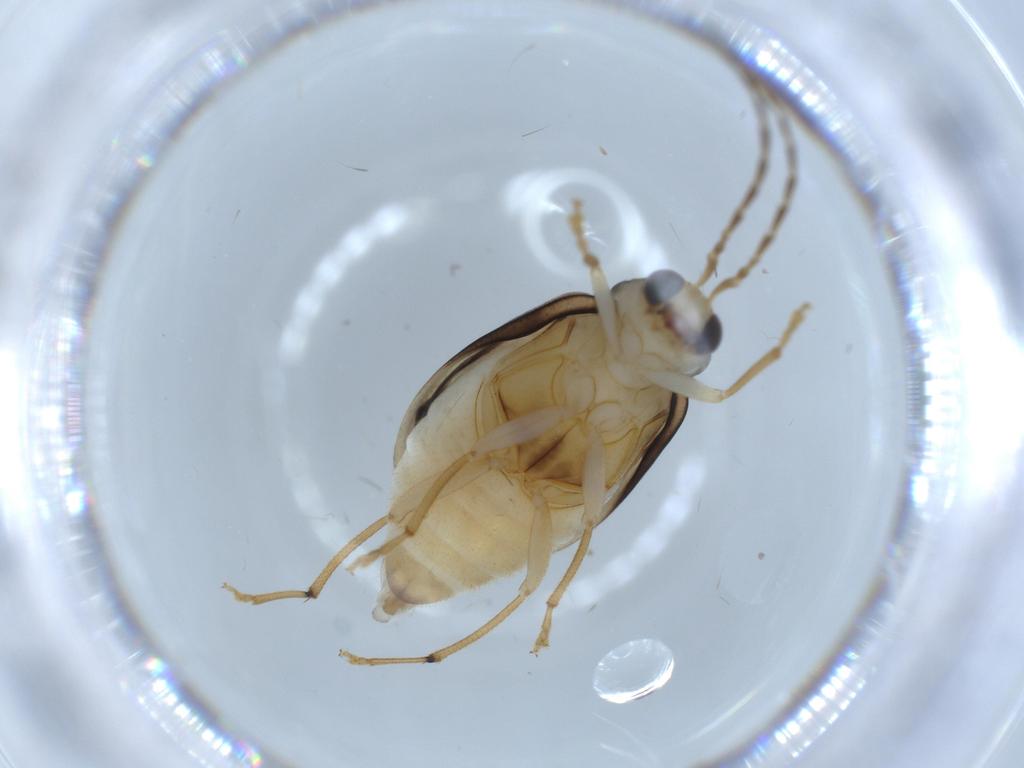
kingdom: Animalia
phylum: Arthropoda
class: Insecta
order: Coleoptera
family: Chrysomelidae
